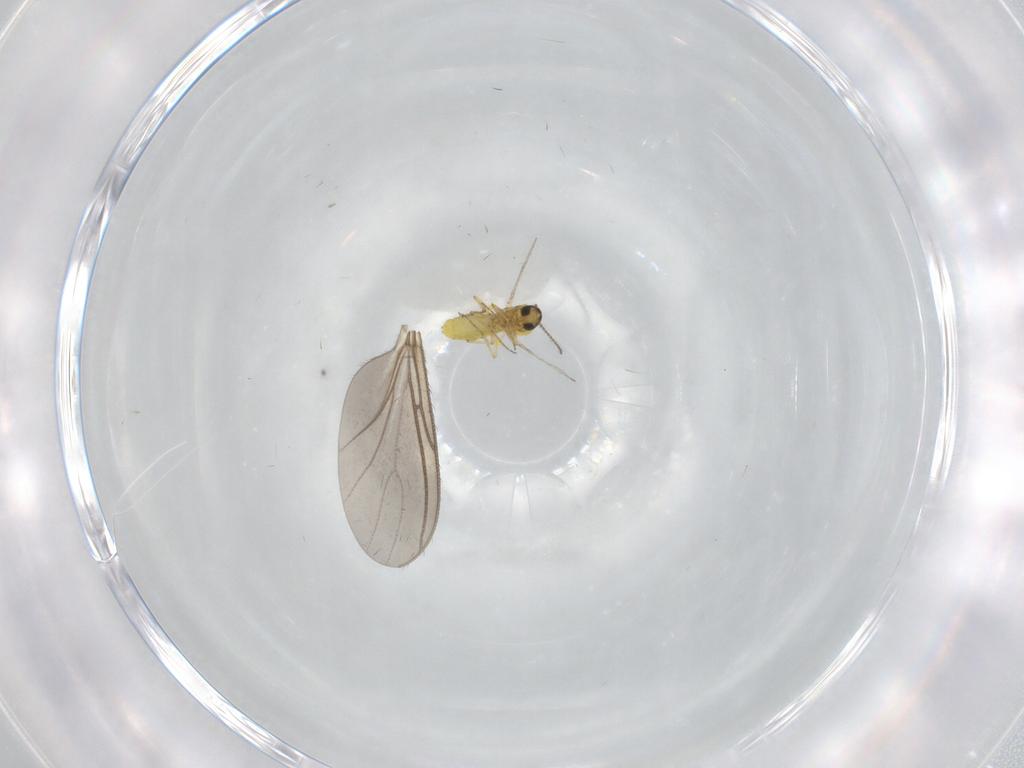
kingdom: Animalia
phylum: Arthropoda
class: Insecta
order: Diptera
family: Ceratopogonidae
